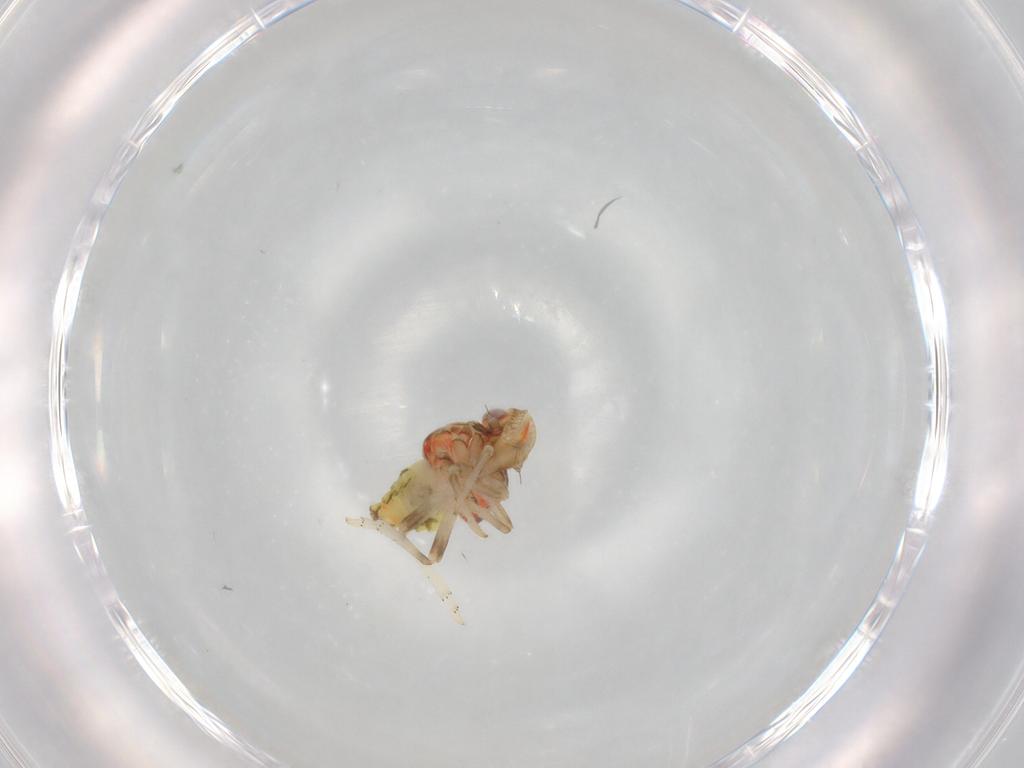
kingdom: Animalia
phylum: Arthropoda
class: Insecta
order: Hemiptera
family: Tropiduchidae
